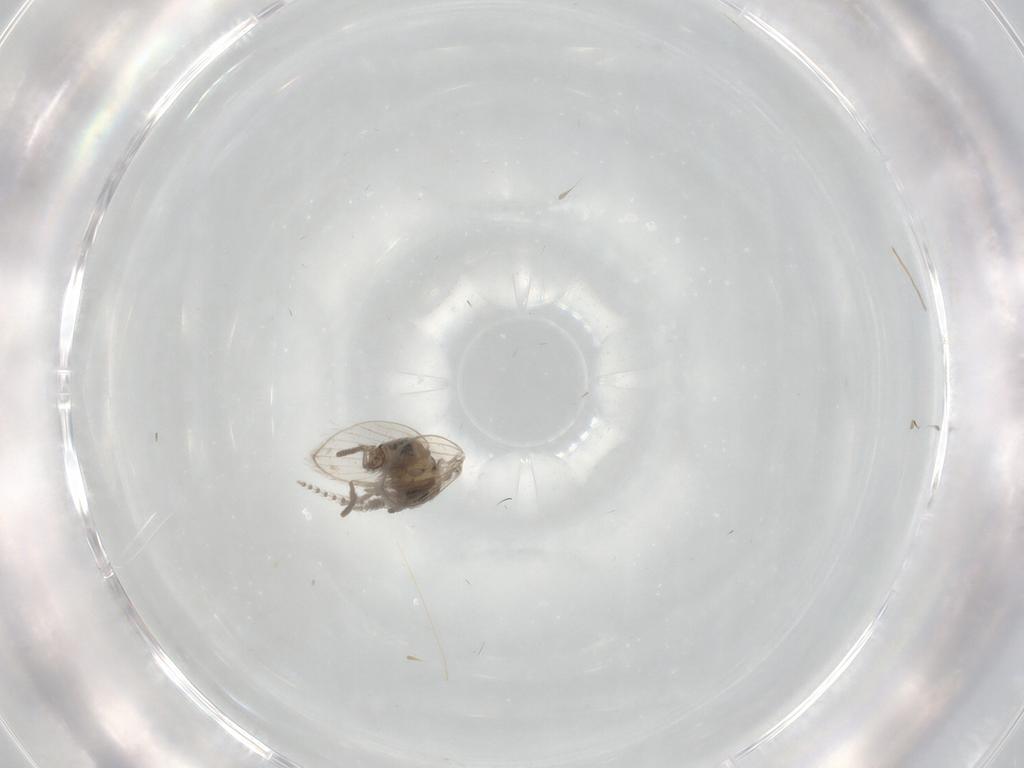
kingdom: Animalia
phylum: Arthropoda
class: Insecta
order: Diptera
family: Psychodidae
